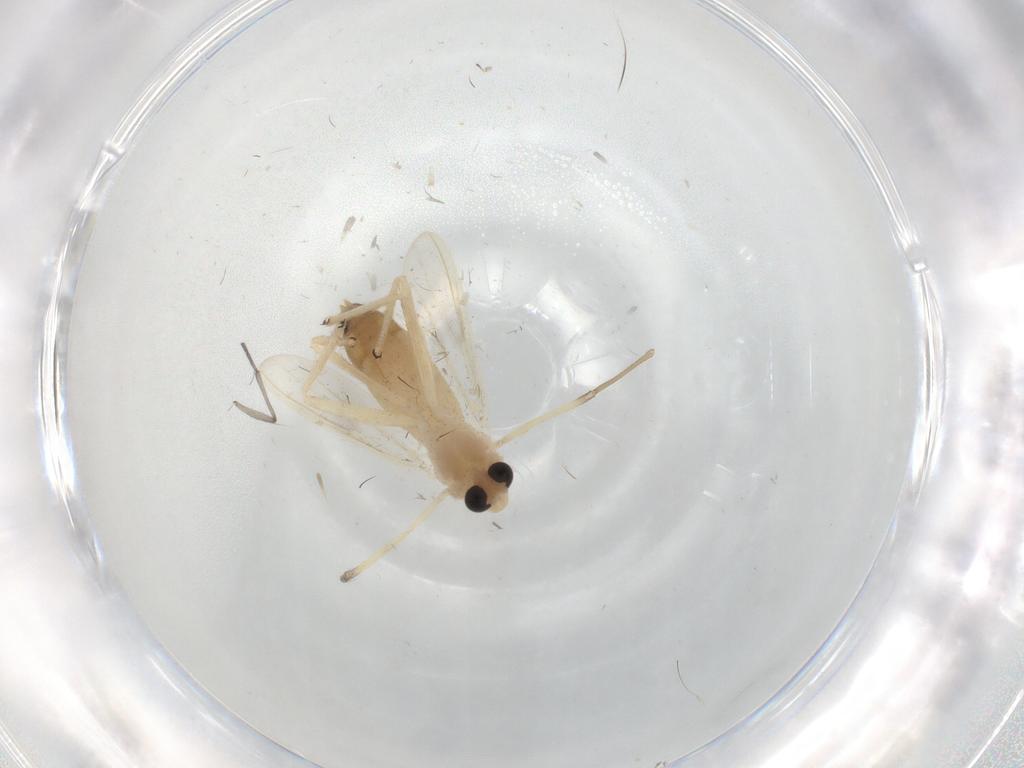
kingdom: Animalia
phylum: Arthropoda
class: Insecta
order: Diptera
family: Chironomidae
